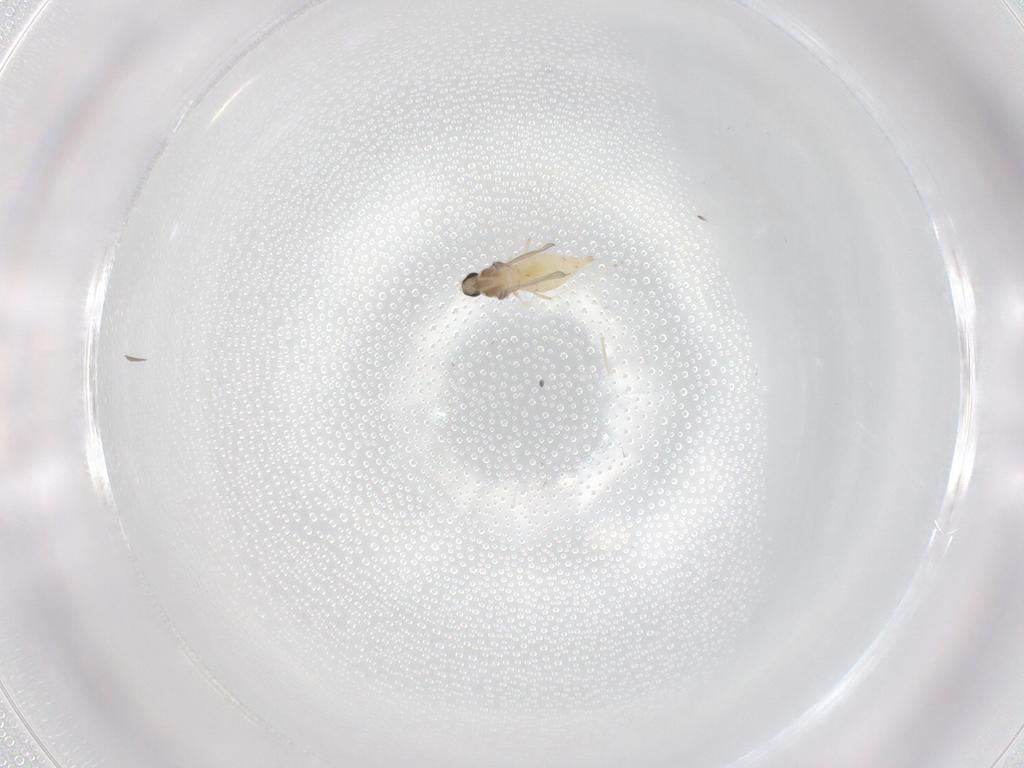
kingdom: Animalia
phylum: Arthropoda
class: Insecta
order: Diptera
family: Cecidomyiidae
